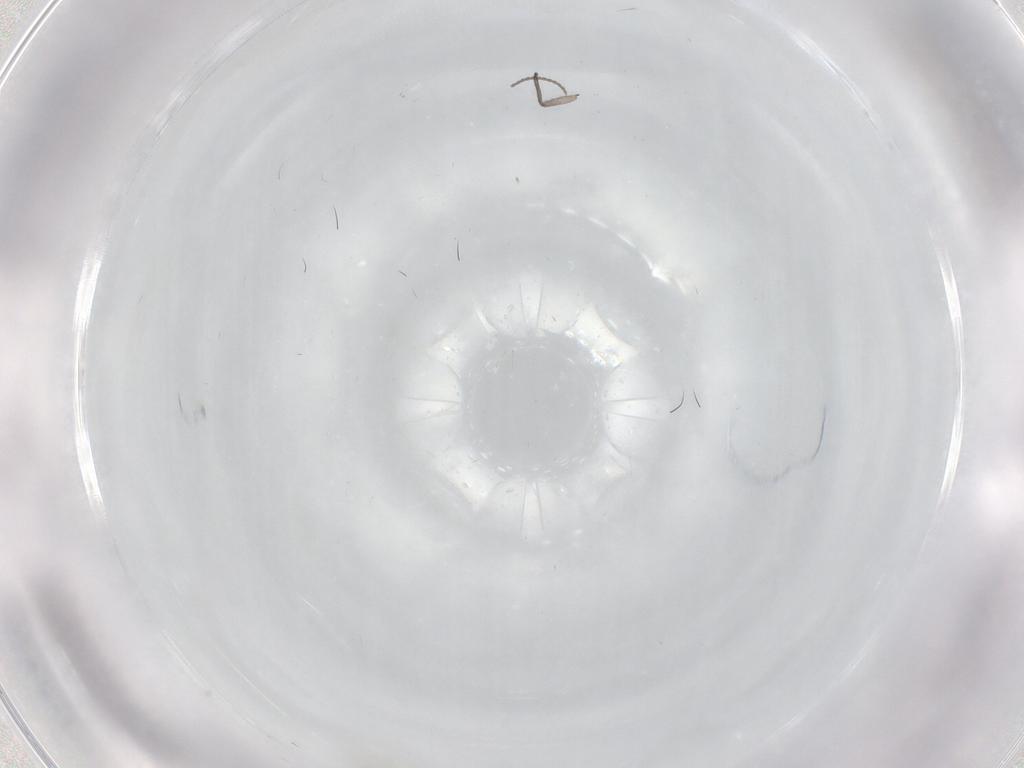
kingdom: Animalia
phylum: Arthropoda
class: Insecta
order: Diptera
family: Sciaridae
